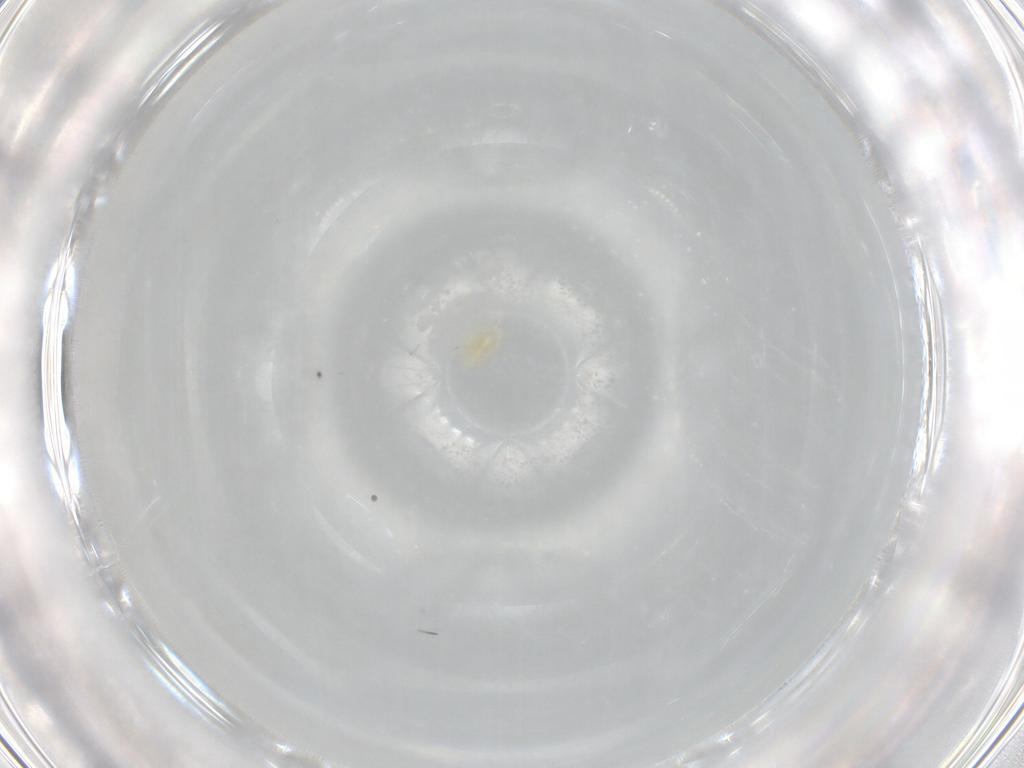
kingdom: Animalia
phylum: Arthropoda
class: Arachnida
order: Trombidiformes
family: Eupodidae
